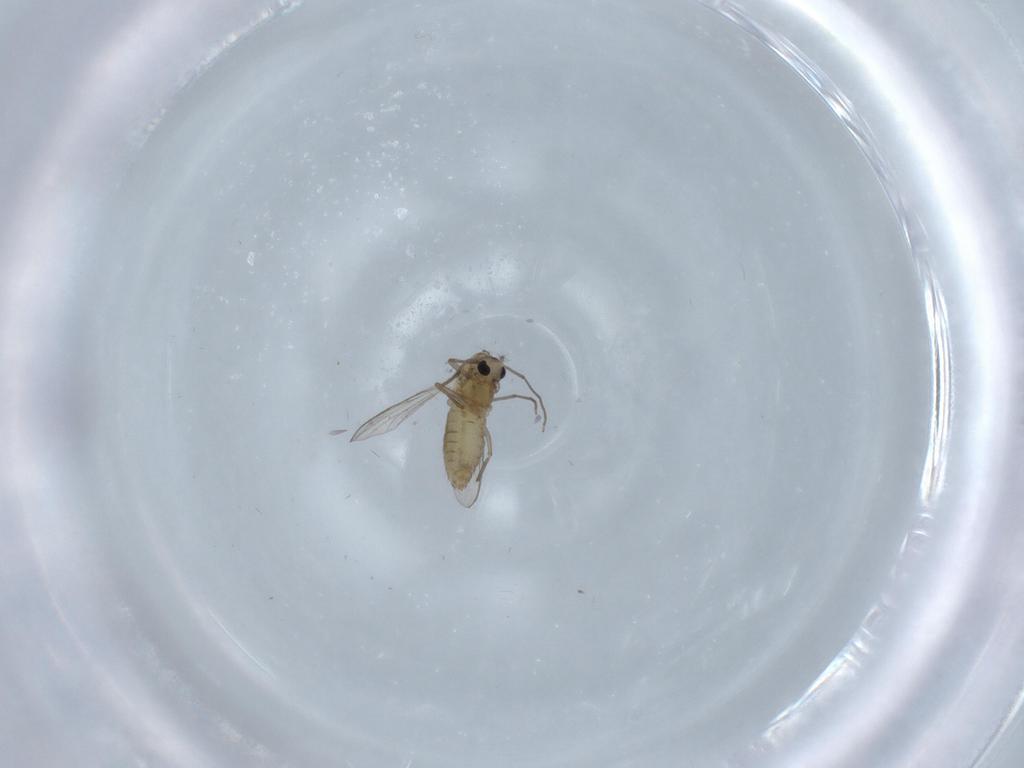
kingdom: Animalia
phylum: Arthropoda
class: Insecta
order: Diptera
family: Chironomidae
